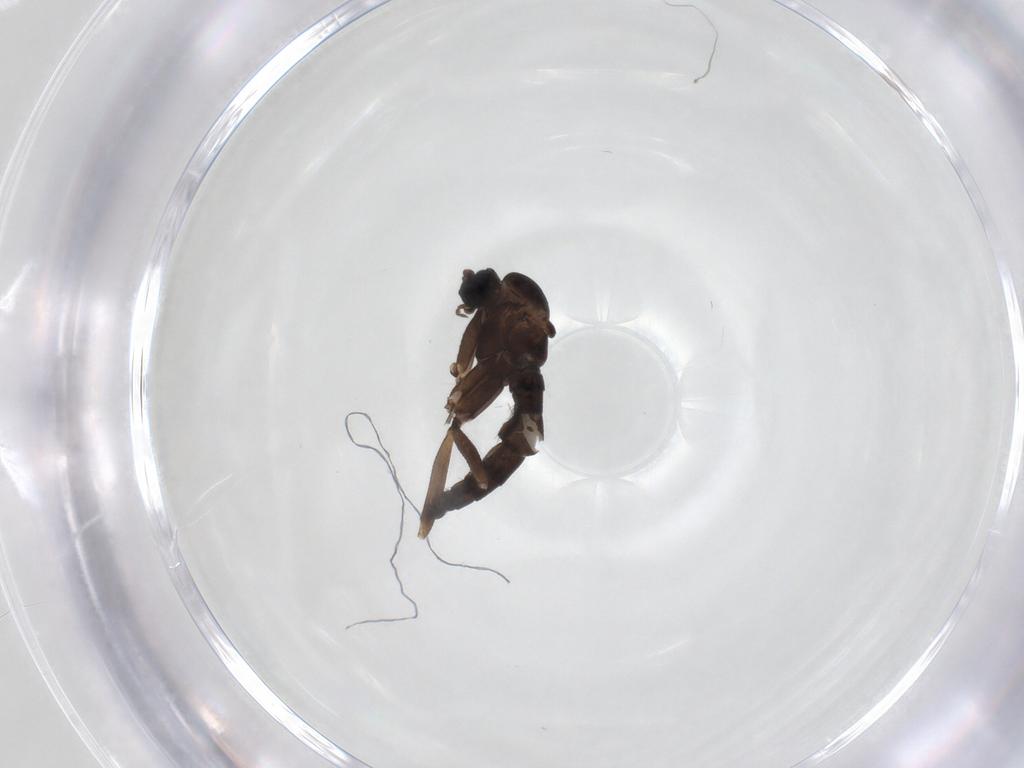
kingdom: Animalia
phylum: Arthropoda
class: Insecta
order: Diptera
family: Sciaridae
